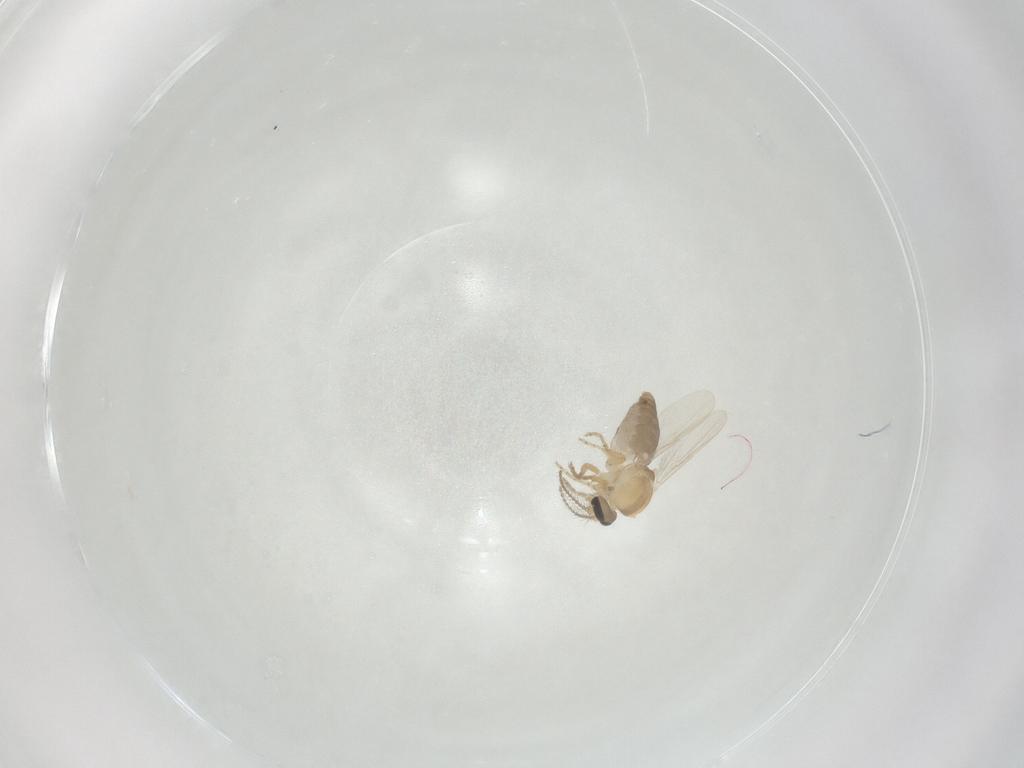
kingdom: Animalia
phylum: Arthropoda
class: Insecta
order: Diptera
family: Ceratopogonidae
